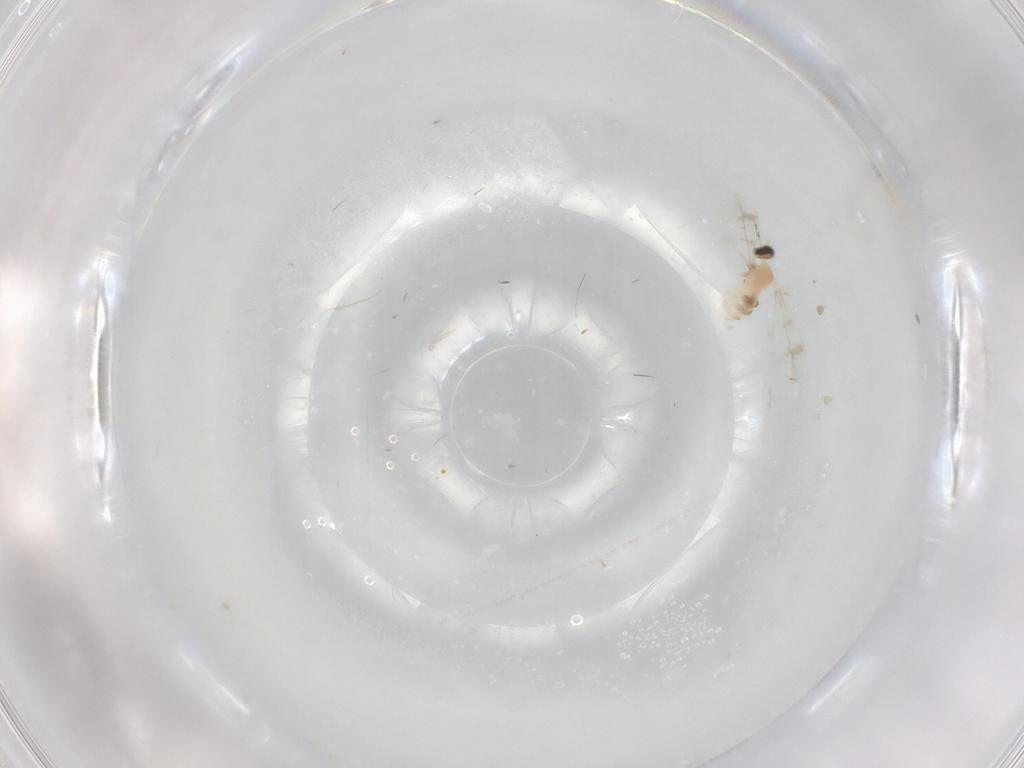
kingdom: Animalia
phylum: Arthropoda
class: Insecta
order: Diptera
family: Cecidomyiidae
